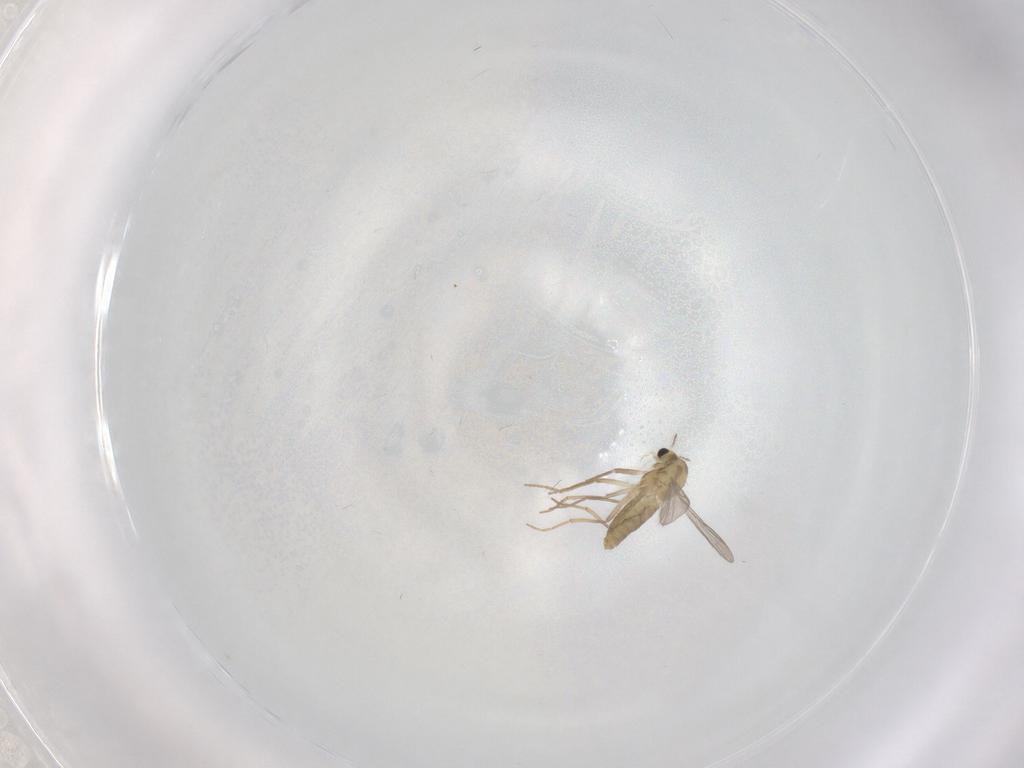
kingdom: Animalia
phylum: Arthropoda
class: Insecta
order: Diptera
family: Chironomidae
